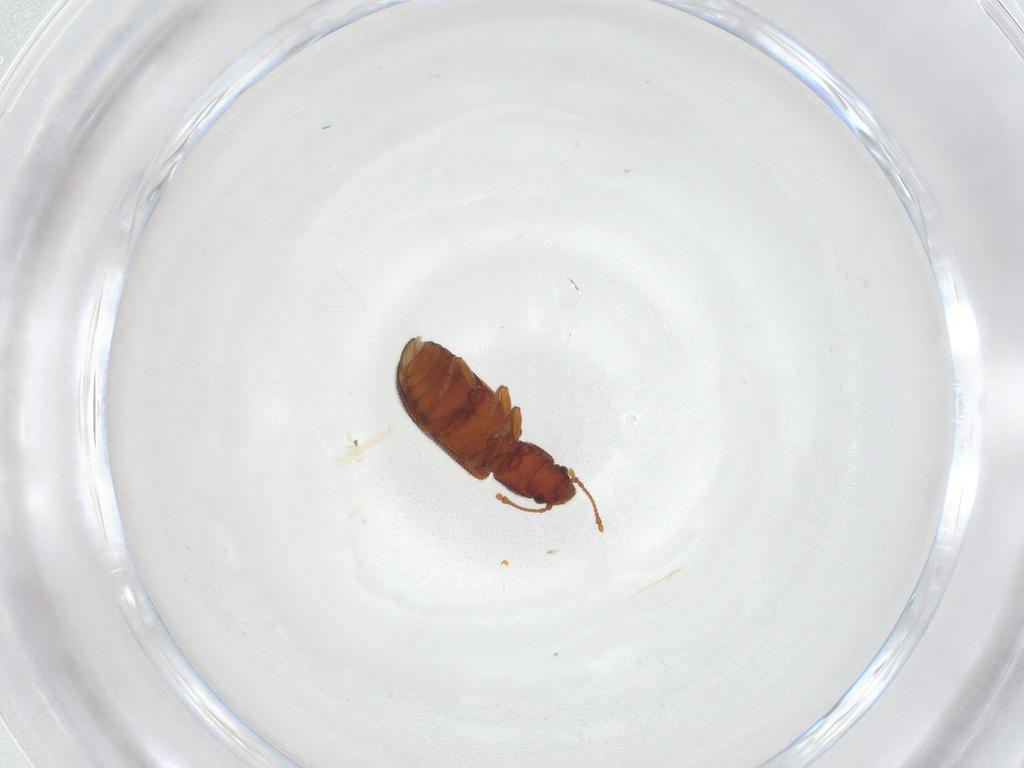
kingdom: Animalia
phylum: Arthropoda
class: Insecta
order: Coleoptera
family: Mycetophagidae
